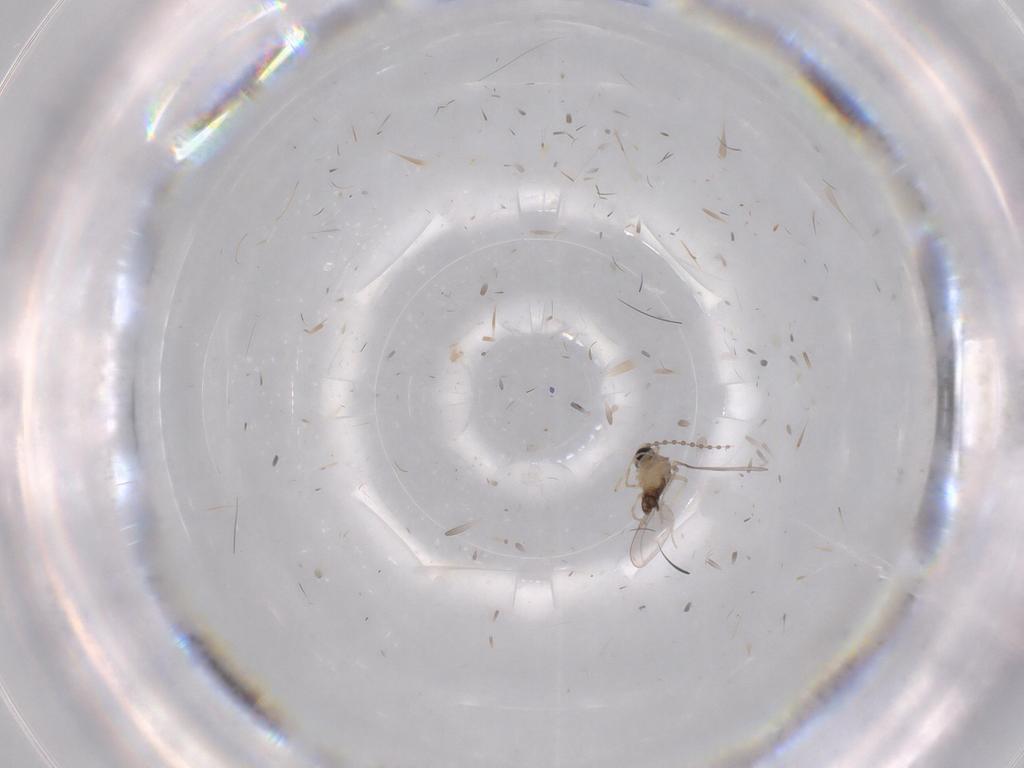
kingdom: Animalia
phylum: Arthropoda
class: Insecta
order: Diptera
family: Cecidomyiidae
